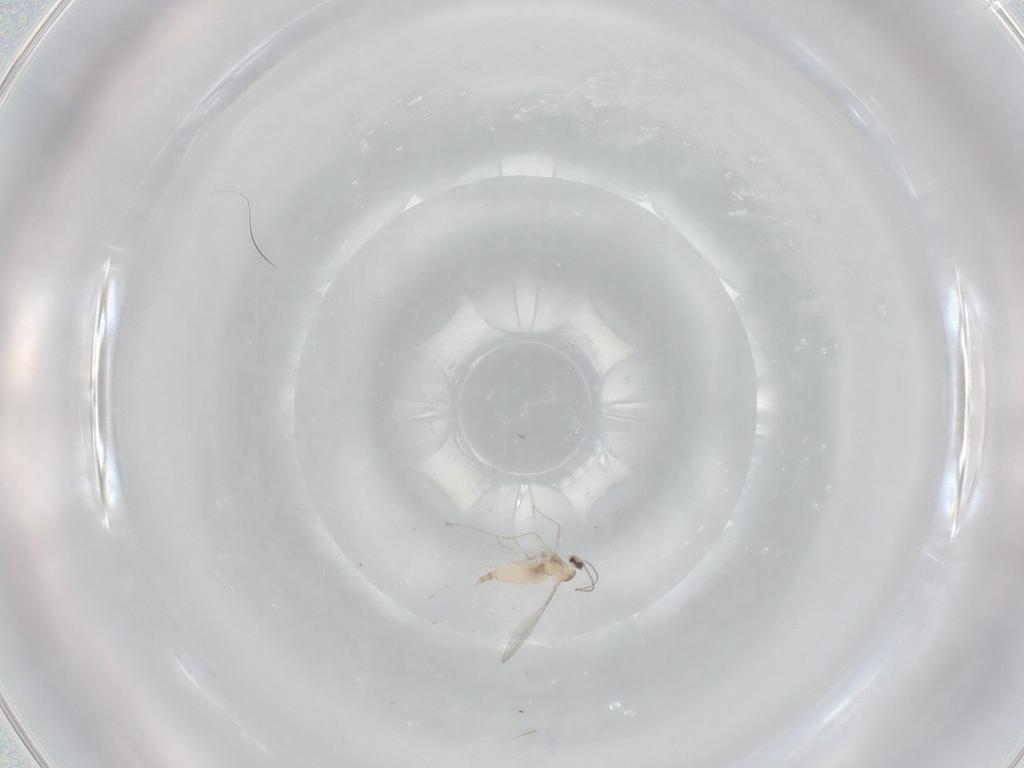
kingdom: Animalia
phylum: Arthropoda
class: Insecta
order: Diptera
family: Cecidomyiidae
